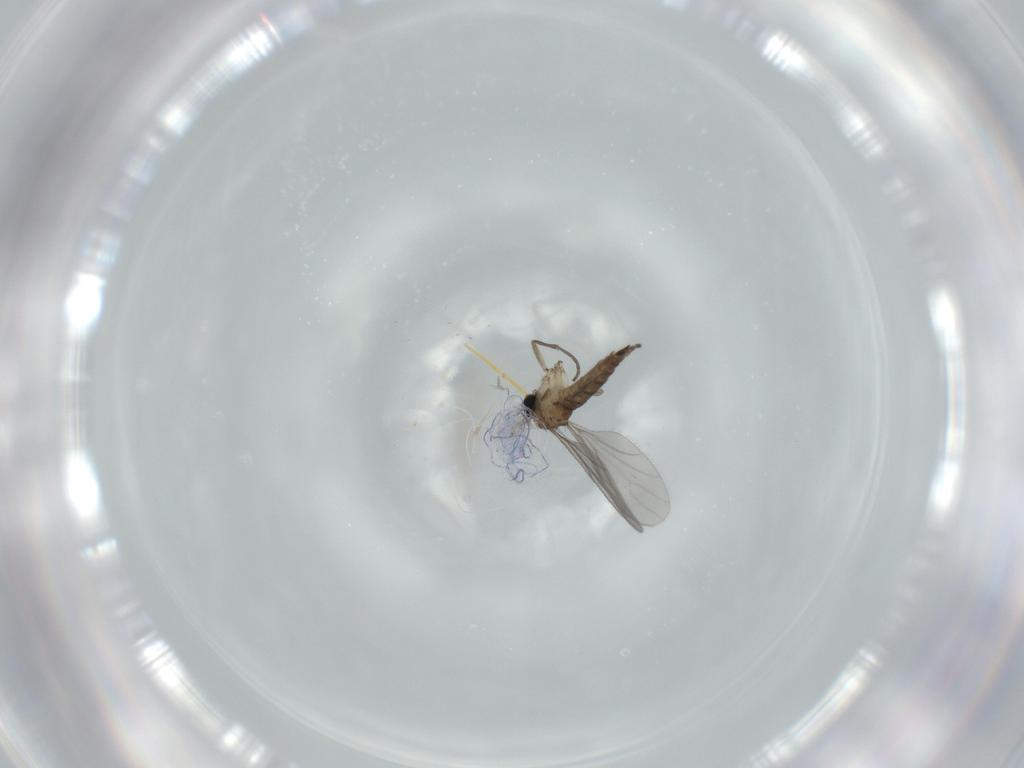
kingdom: Animalia
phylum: Arthropoda
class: Insecta
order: Diptera
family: Sciaridae
